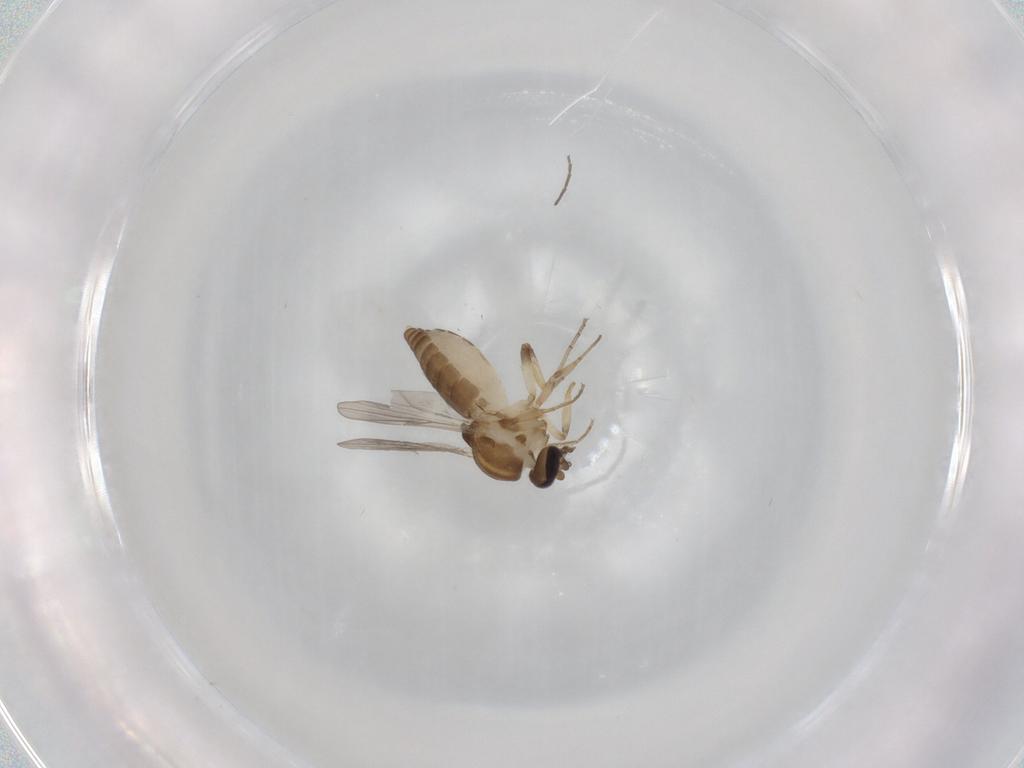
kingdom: Animalia
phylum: Arthropoda
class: Insecta
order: Diptera
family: Ceratopogonidae
